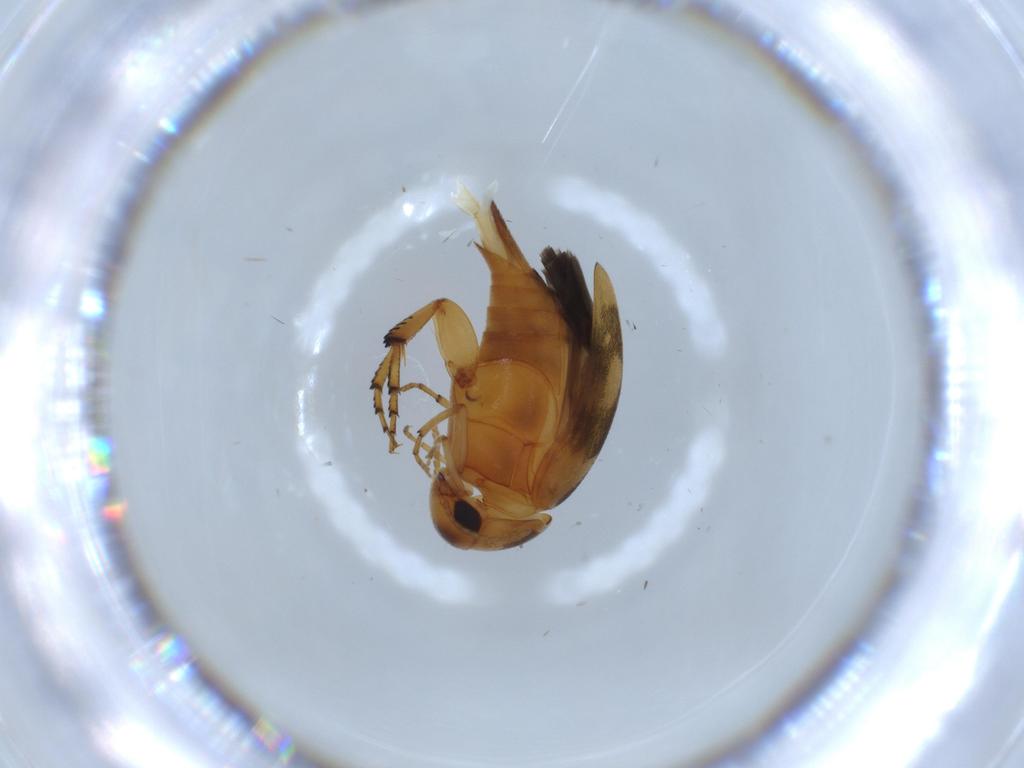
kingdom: Animalia
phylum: Arthropoda
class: Insecta
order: Coleoptera
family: Mordellidae
